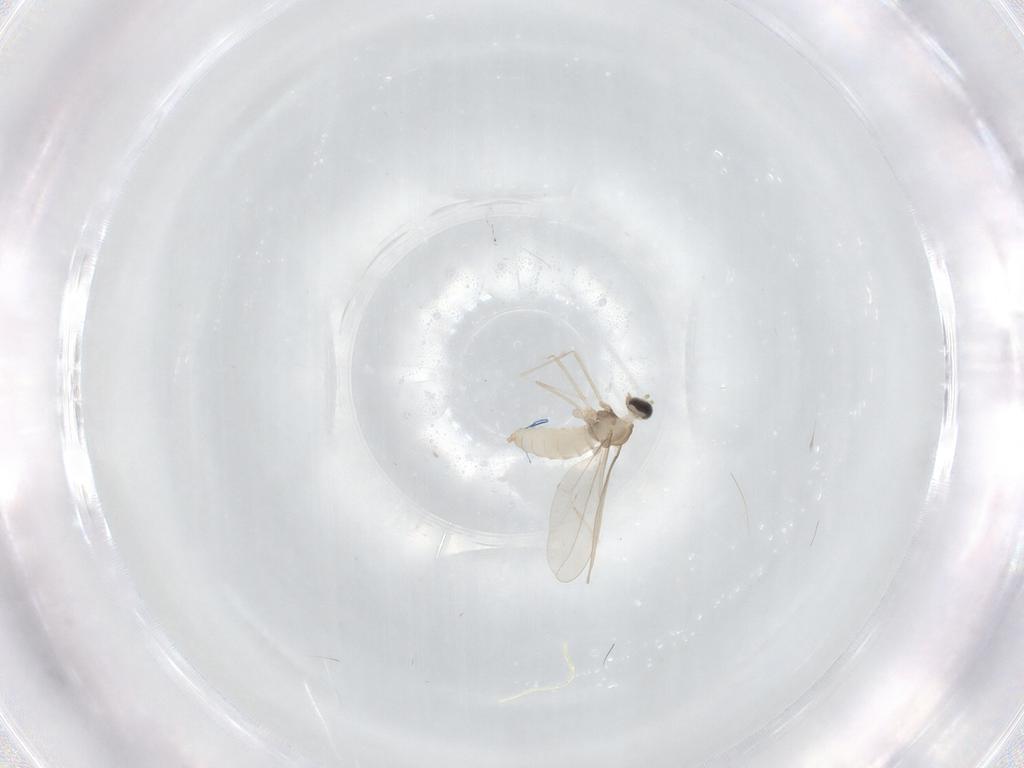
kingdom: Animalia
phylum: Arthropoda
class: Insecta
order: Diptera
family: Cecidomyiidae
